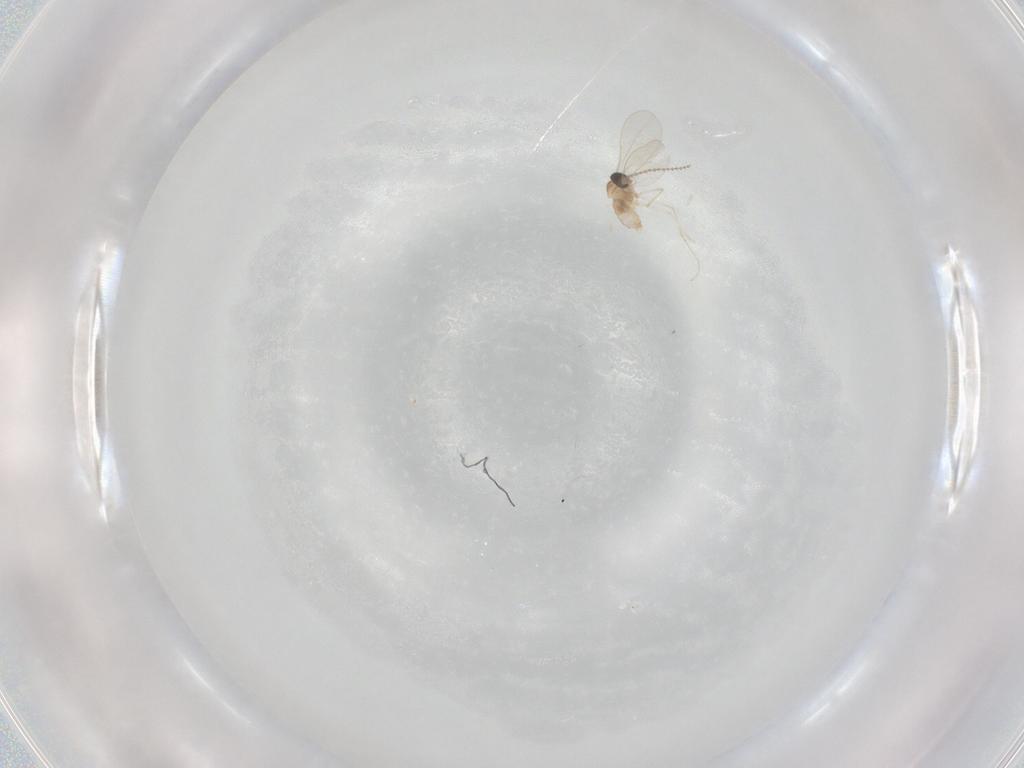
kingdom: Animalia
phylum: Arthropoda
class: Insecta
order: Diptera
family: Cecidomyiidae
